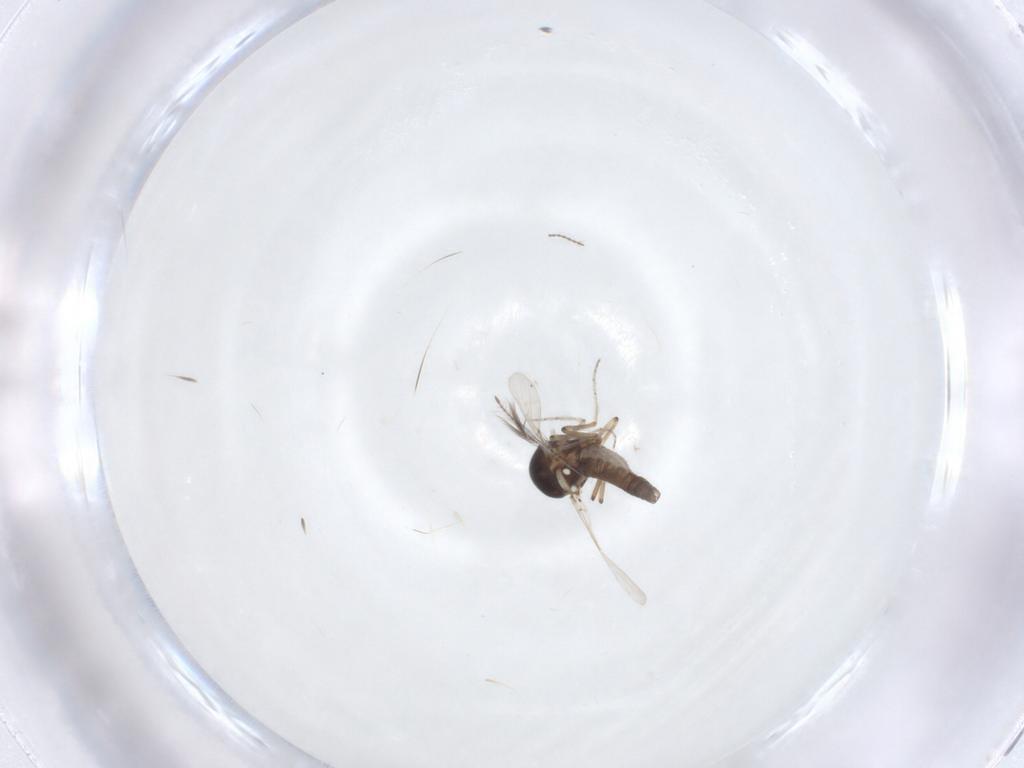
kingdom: Animalia
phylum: Arthropoda
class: Insecta
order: Diptera
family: Ceratopogonidae
